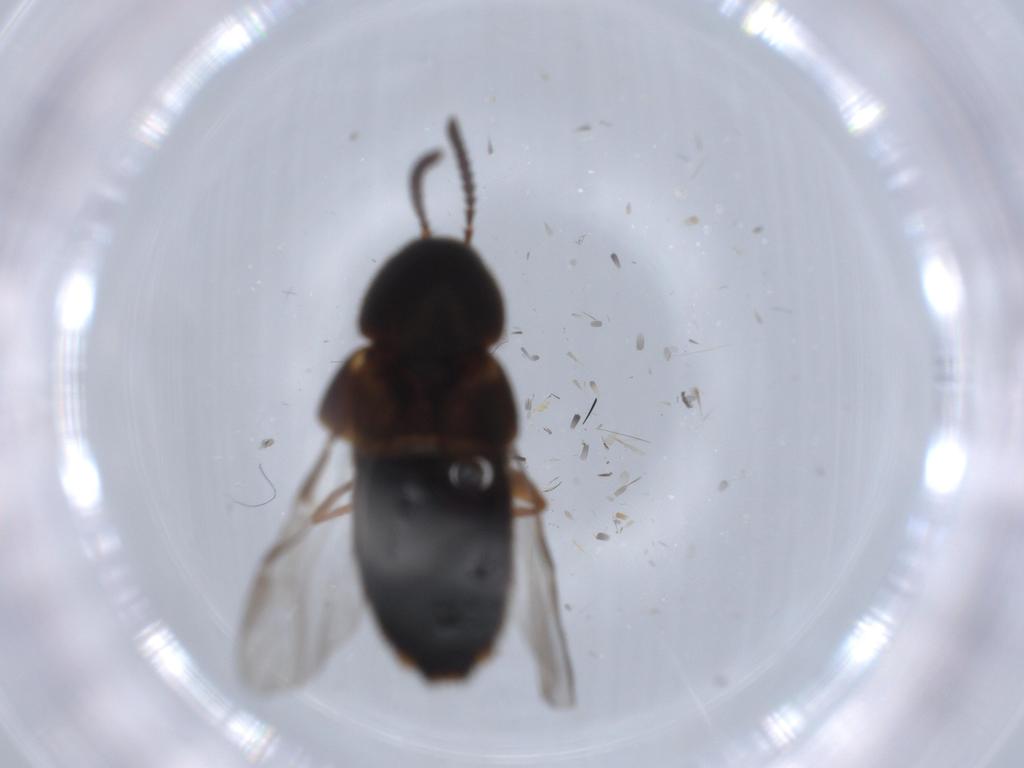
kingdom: Animalia
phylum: Arthropoda
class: Insecta
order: Coleoptera
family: Staphylinidae
